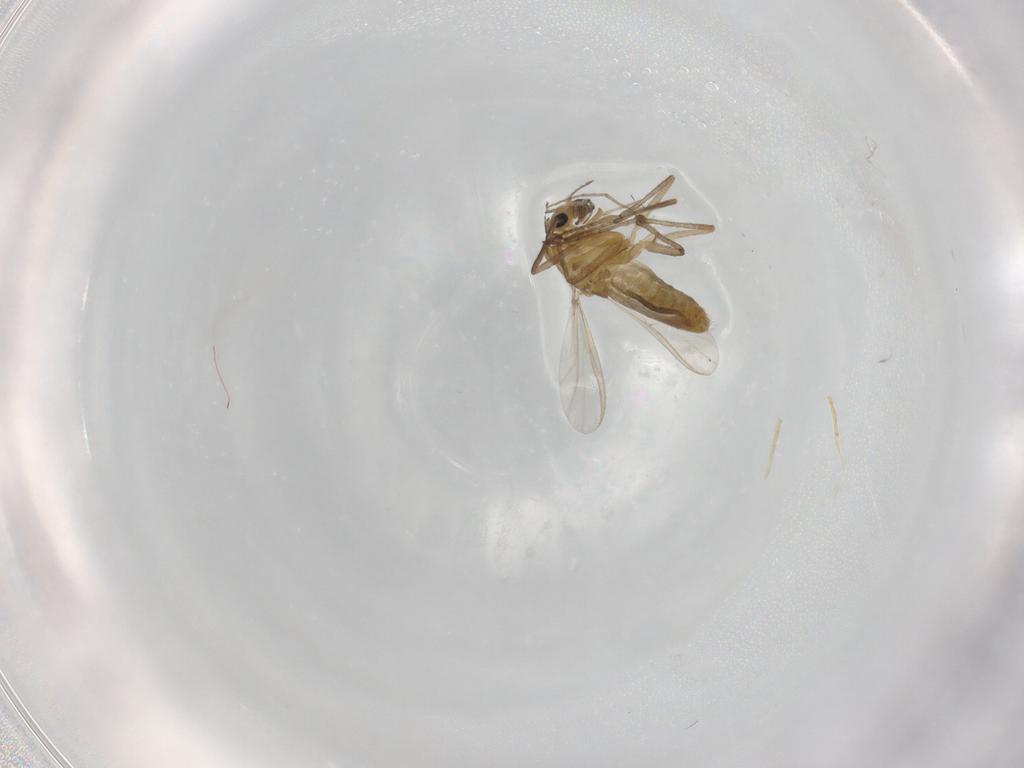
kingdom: Animalia
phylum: Arthropoda
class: Insecta
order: Diptera
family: Chironomidae
